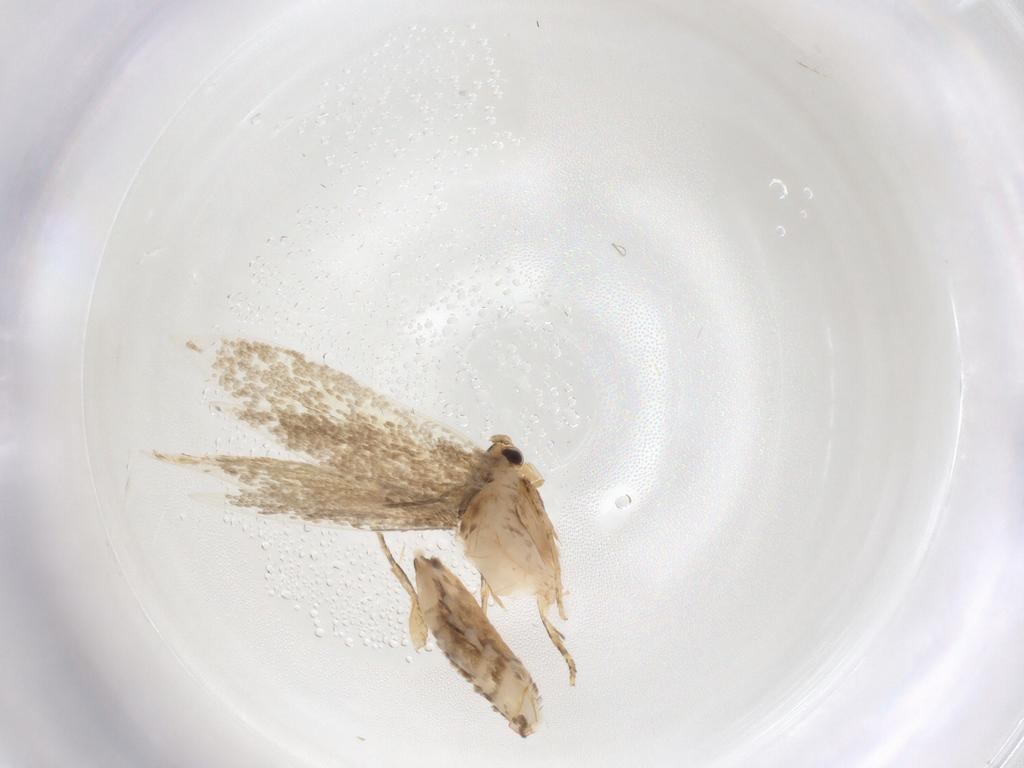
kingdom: Animalia
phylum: Arthropoda
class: Insecta
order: Lepidoptera
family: Tineidae
